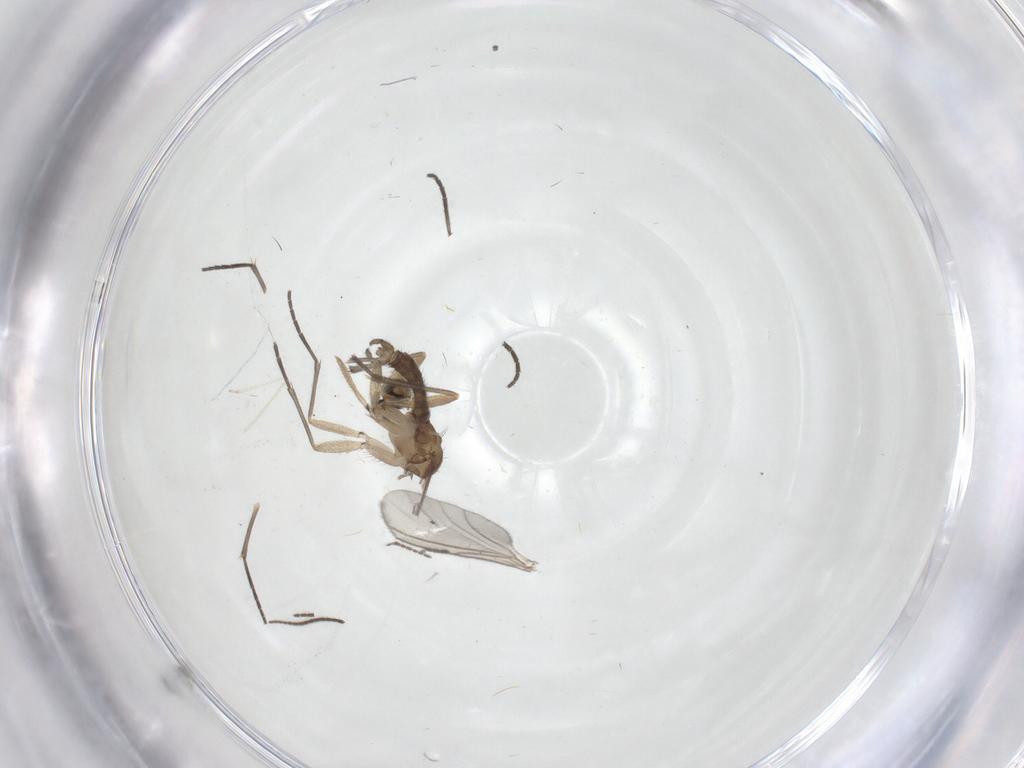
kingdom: Animalia
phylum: Arthropoda
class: Insecta
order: Diptera
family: Sciaridae
